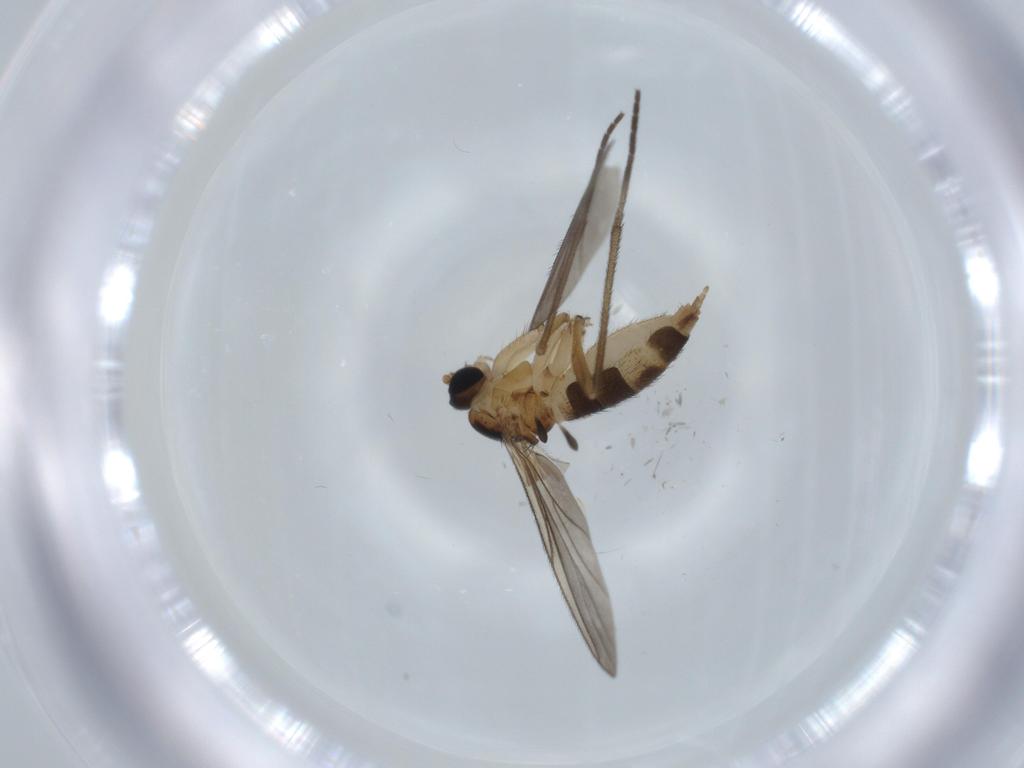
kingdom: Animalia
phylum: Arthropoda
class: Insecta
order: Diptera
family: Sciaridae
